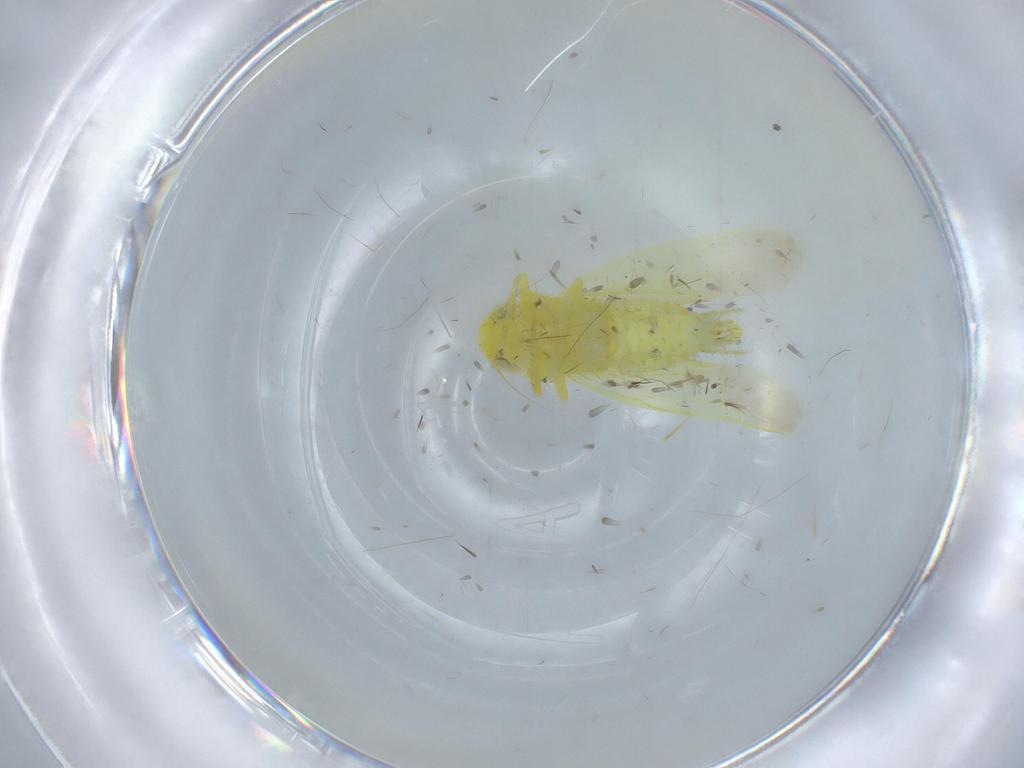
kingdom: Animalia
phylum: Arthropoda
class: Insecta
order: Hemiptera
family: Cicadellidae
